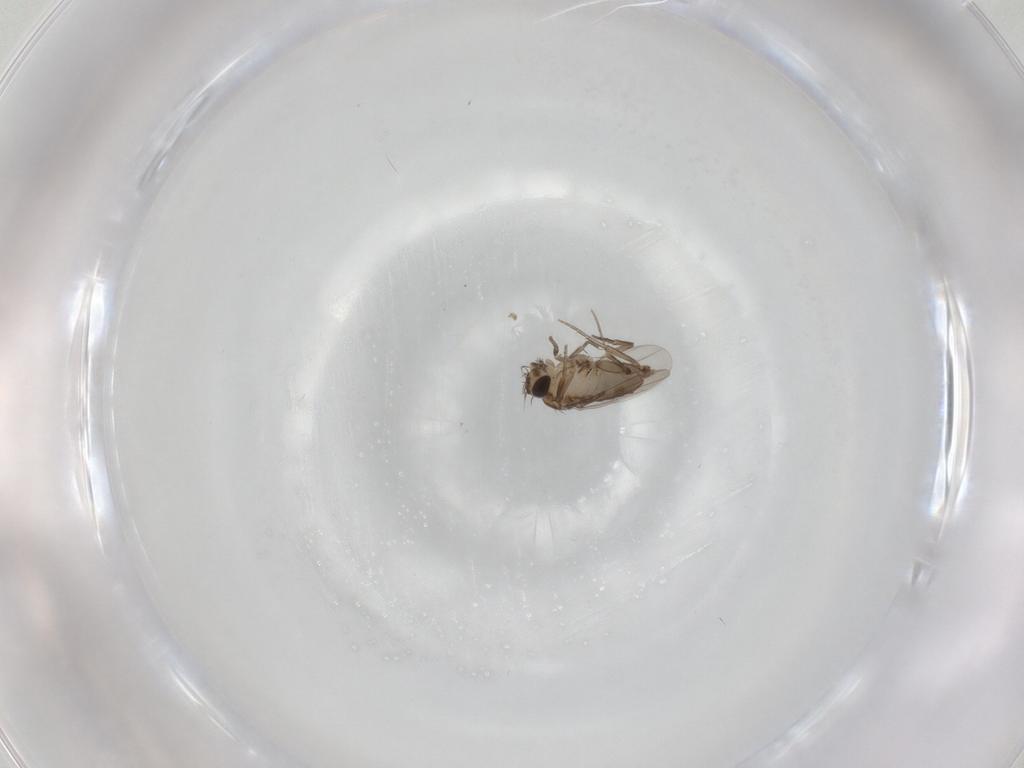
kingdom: Animalia
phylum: Arthropoda
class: Insecta
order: Diptera
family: Phoridae
